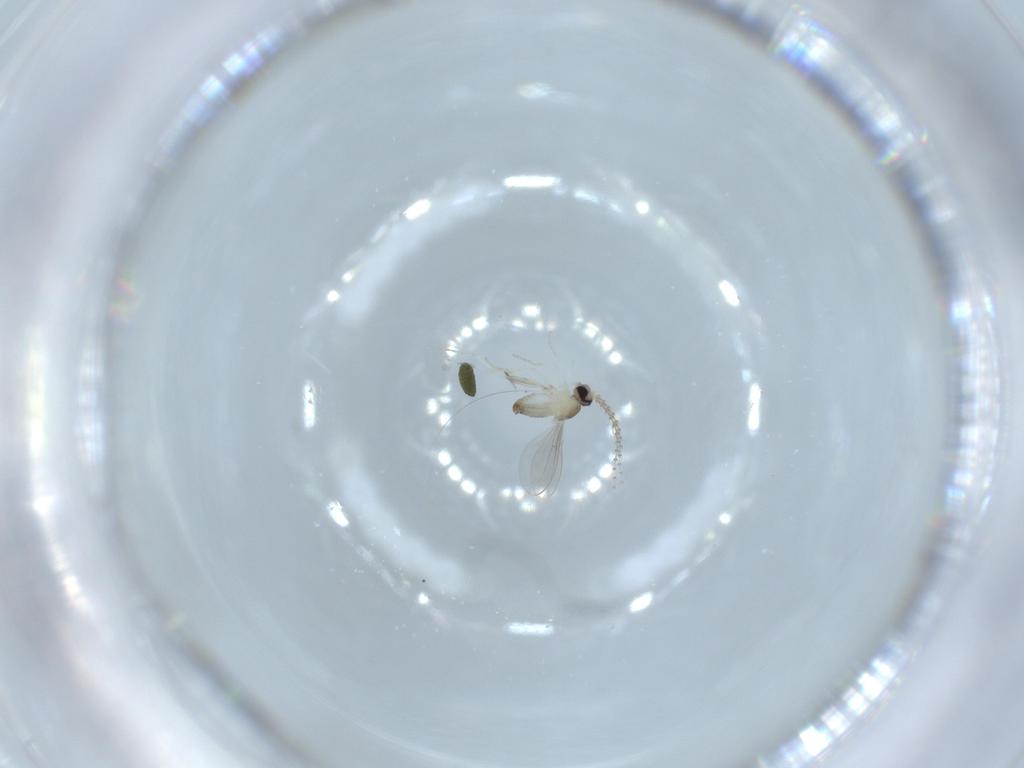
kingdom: Animalia
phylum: Arthropoda
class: Insecta
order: Diptera
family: Cecidomyiidae
